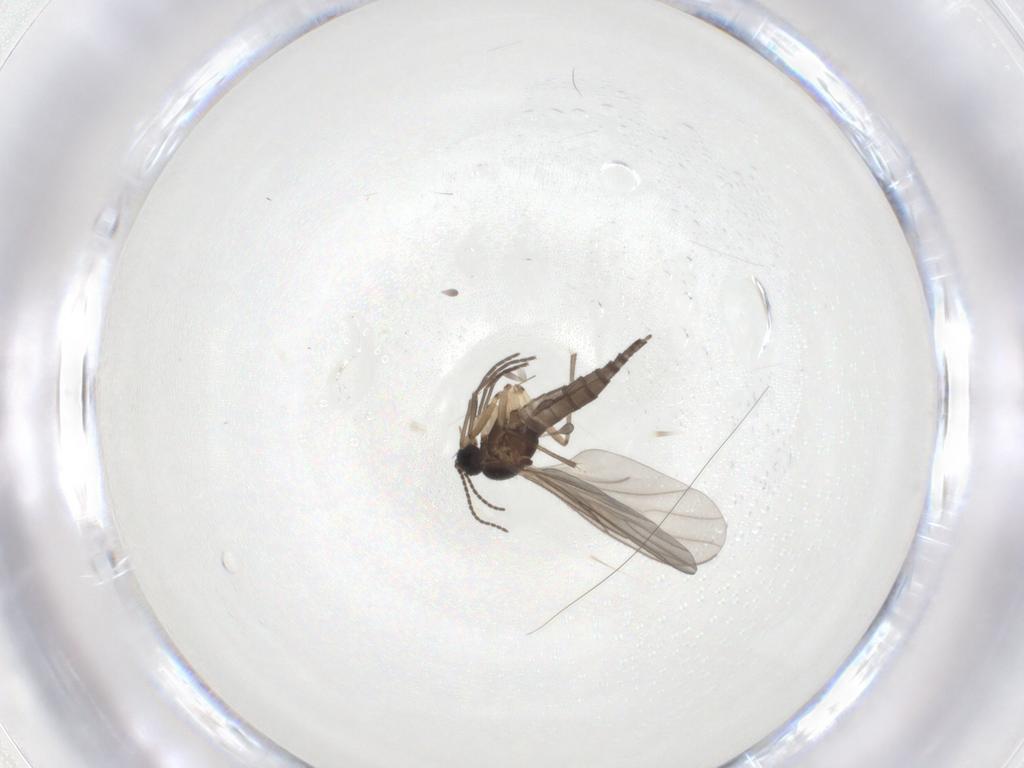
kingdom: Animalia
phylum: Arthropoda
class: Insecta
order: Diptera
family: Sciaridae
